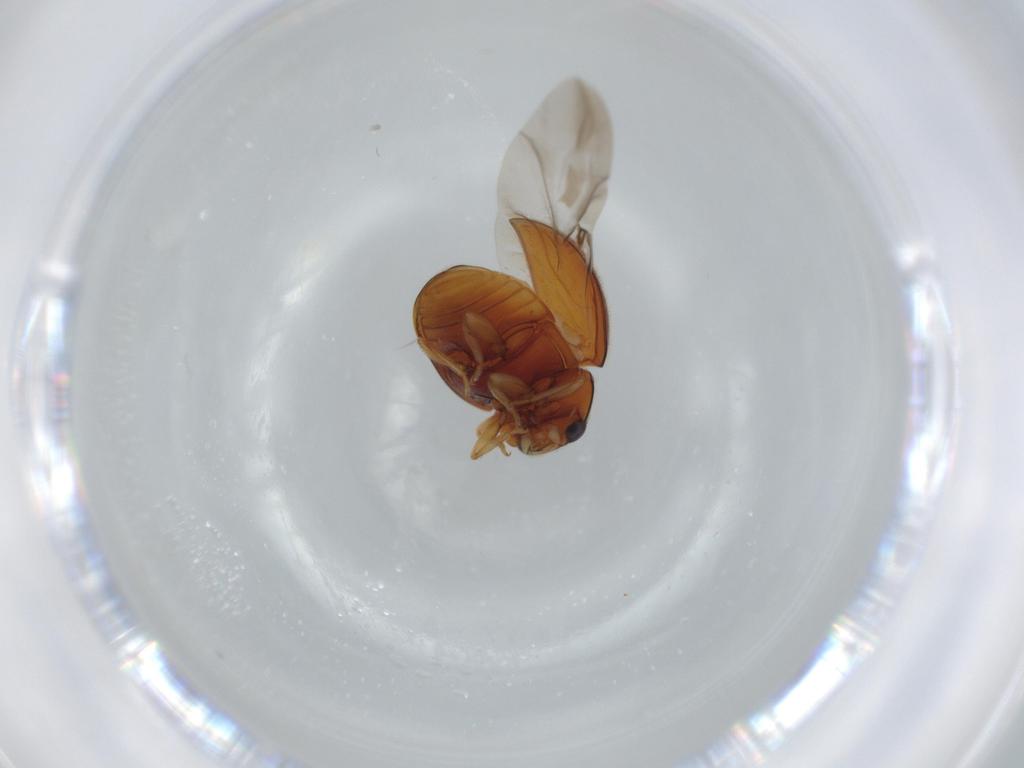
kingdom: Animalia
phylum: Arthropoda
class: Insecta
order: Coleoptera
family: Coccinellidae
